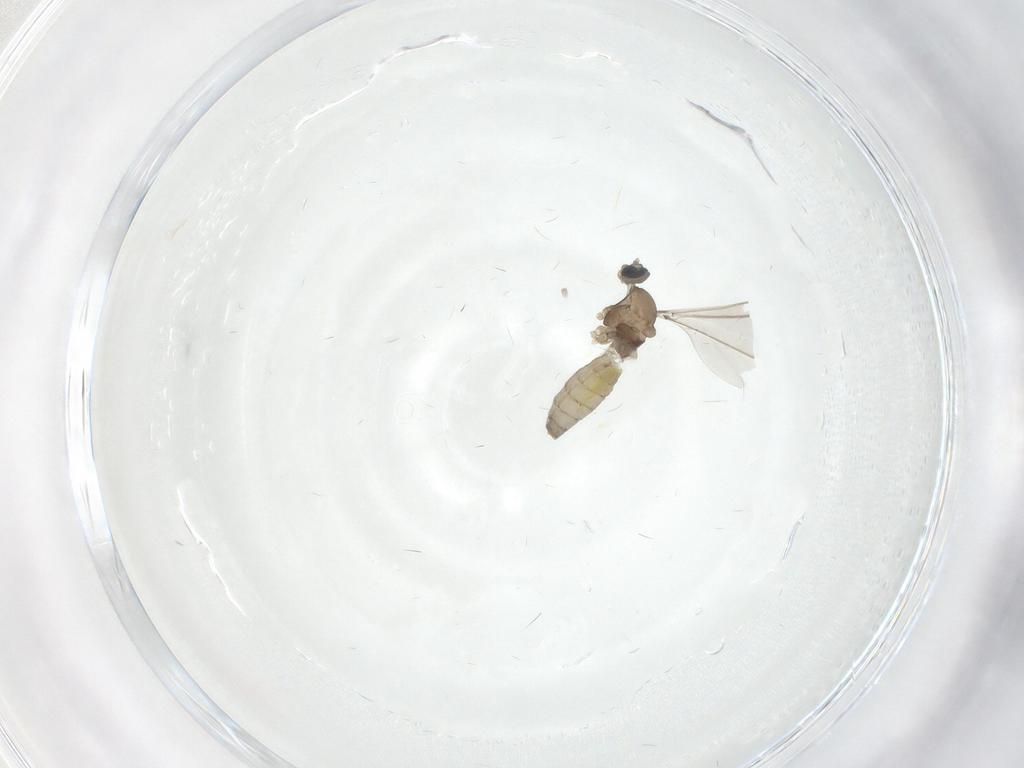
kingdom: Animalia
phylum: Arthropoda
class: Insecta
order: Diptera
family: Cecidomyiidae
